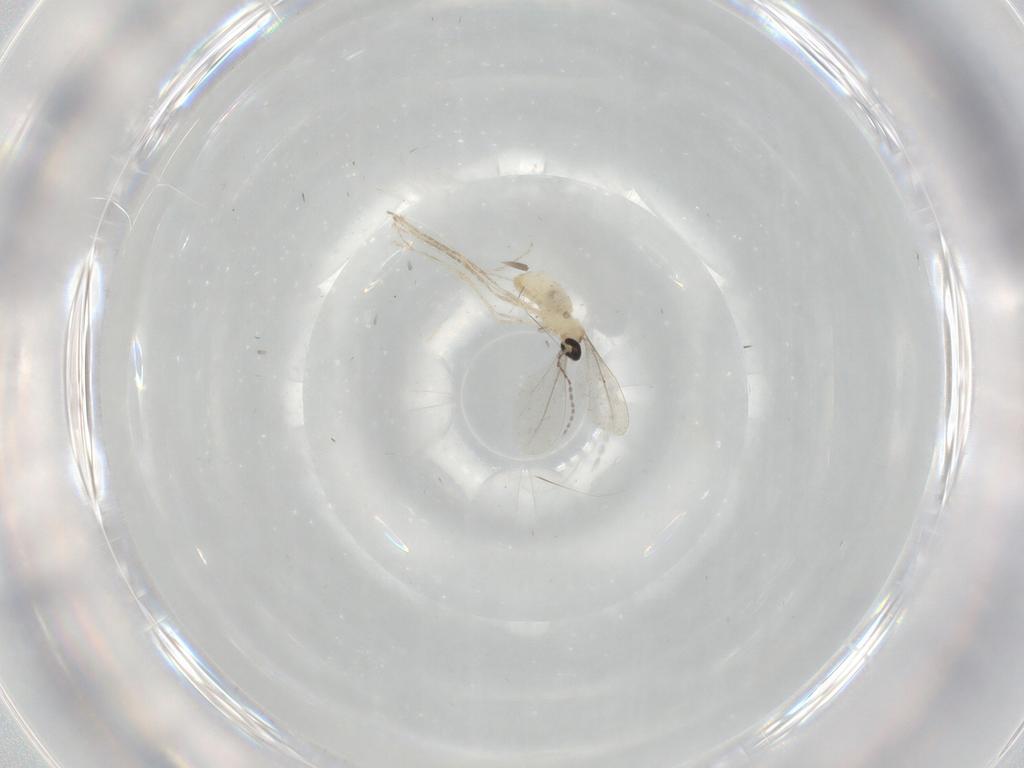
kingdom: Animalia
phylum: Arthropoda
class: Insecta
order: Diptera
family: Cecidomyiidae
